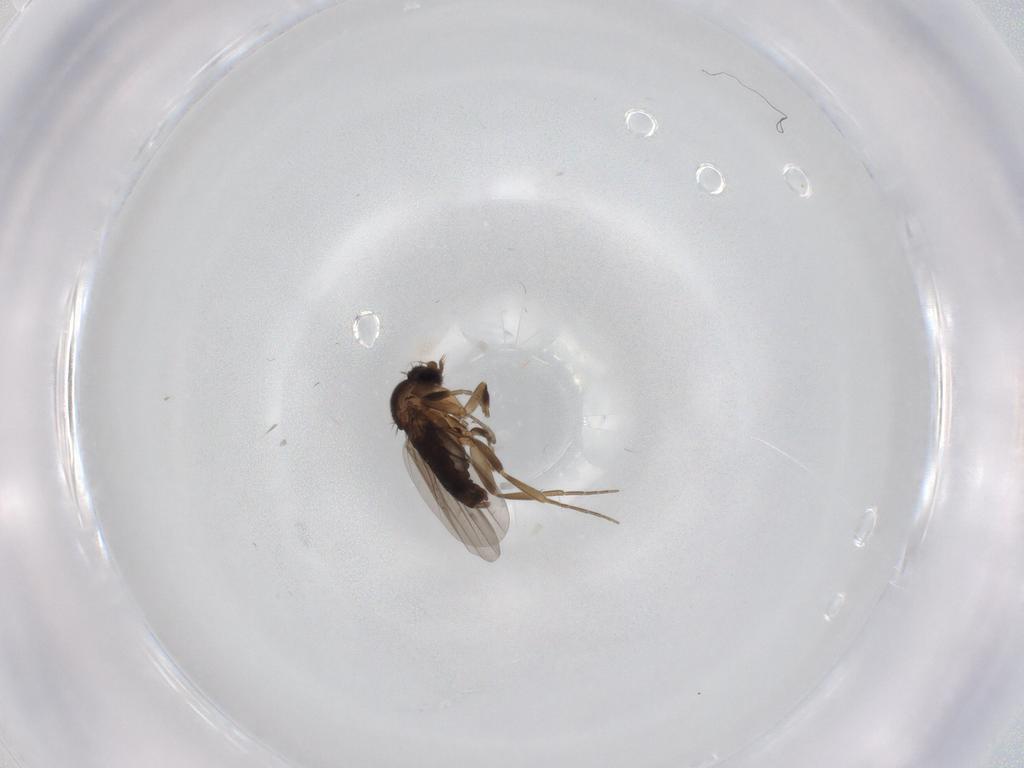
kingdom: Animalia
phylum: Arthropoda
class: Insecta
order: Diptera
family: Phoridae
